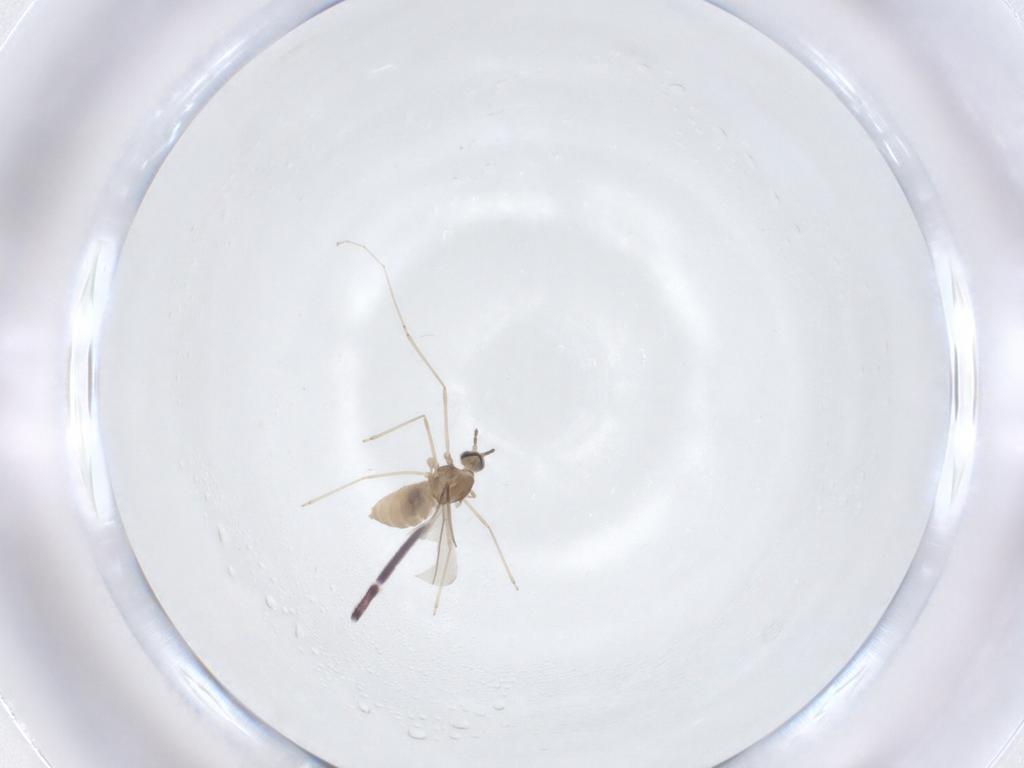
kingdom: Animalia
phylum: Arthropoda
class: Insecta
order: Diptera
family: Cecidomyiidae
